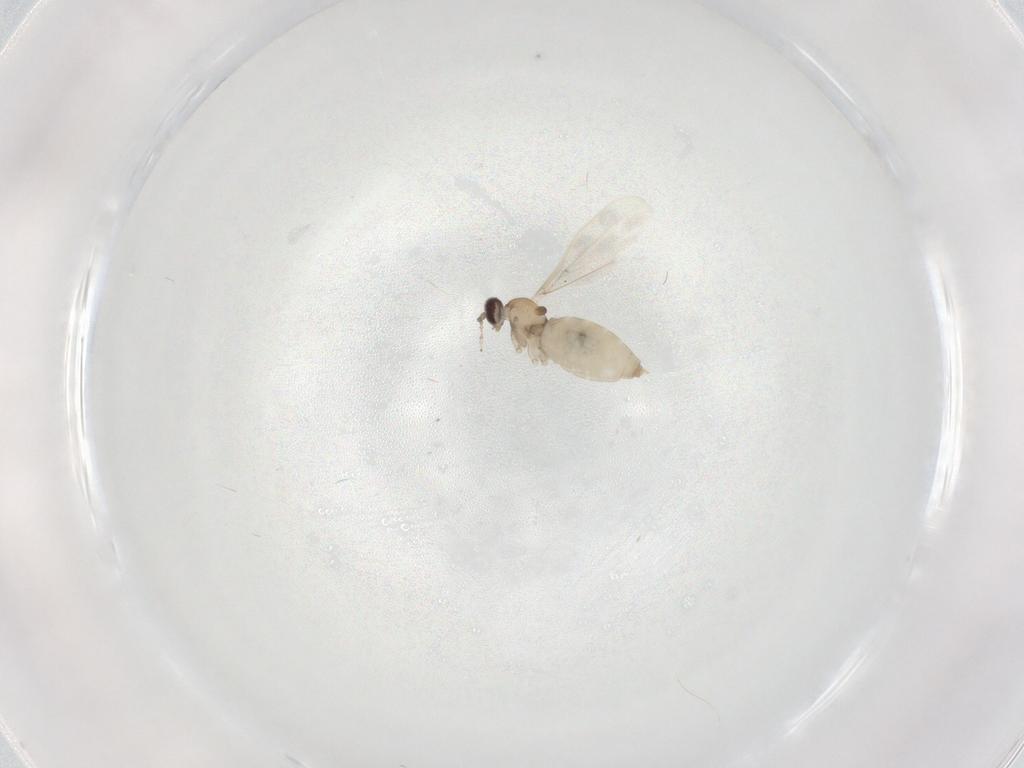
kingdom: Animalia
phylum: Arthropoda
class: Insecta
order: Diptera
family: Cecidomyiidae
